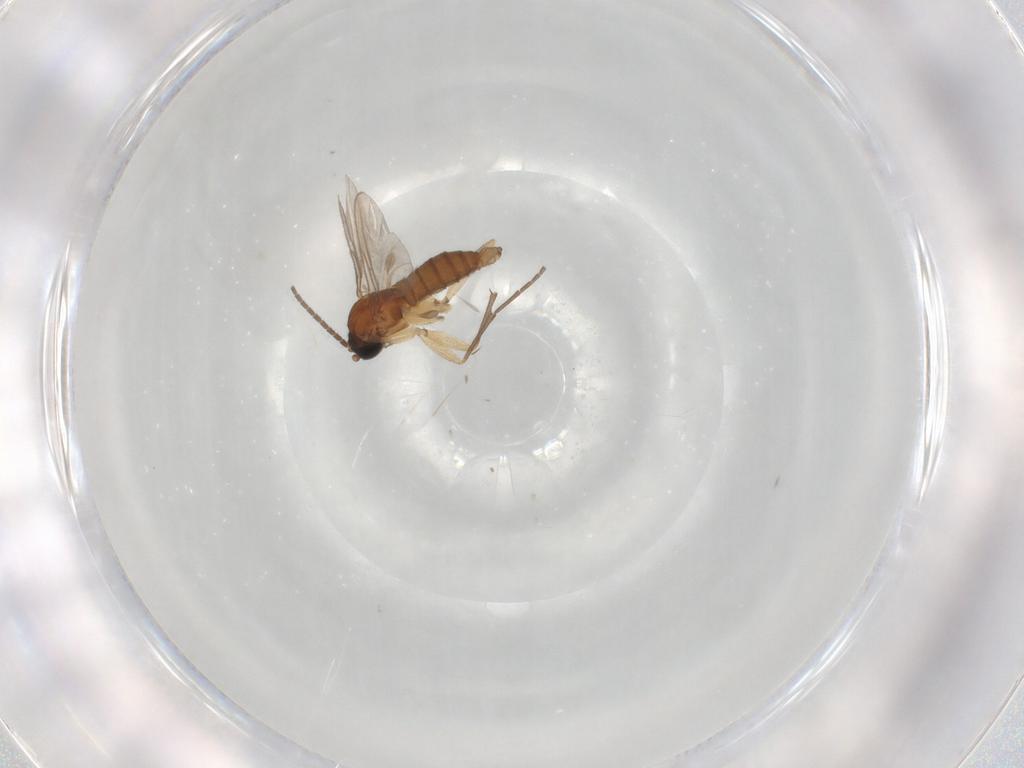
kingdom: Animalia
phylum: Arthropoda
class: Insecta
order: Diptera
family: Sciaridae
